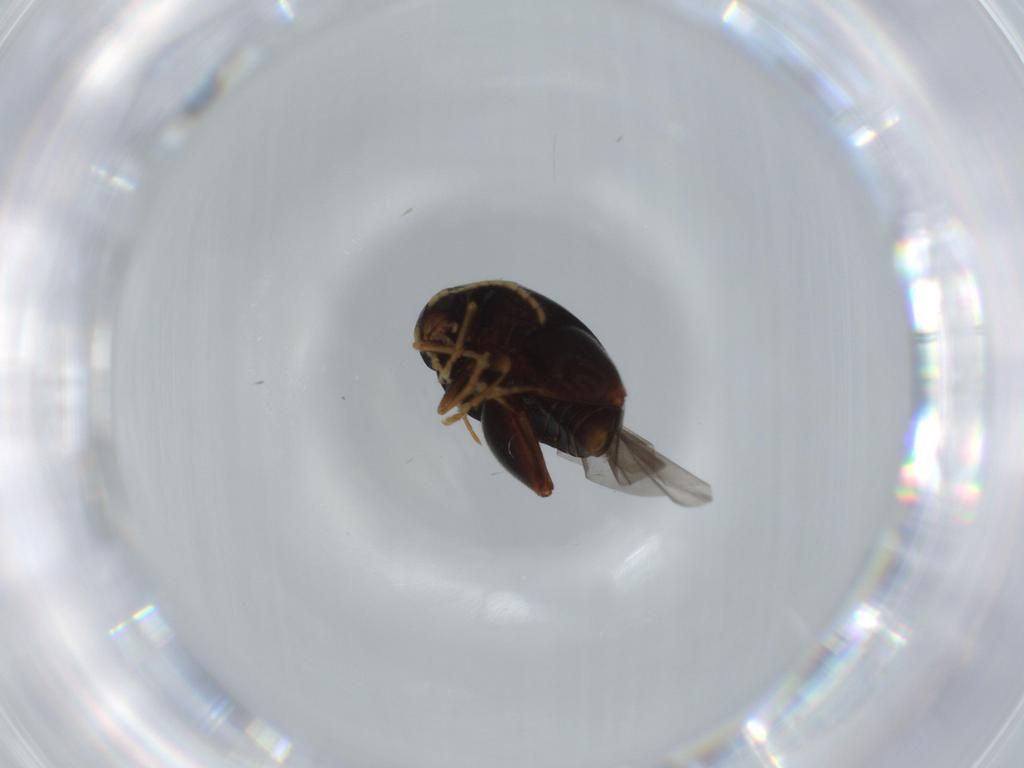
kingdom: Animalia
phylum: Arthropoda
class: Insecta
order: Coleoptera
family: Chrysomelidae
